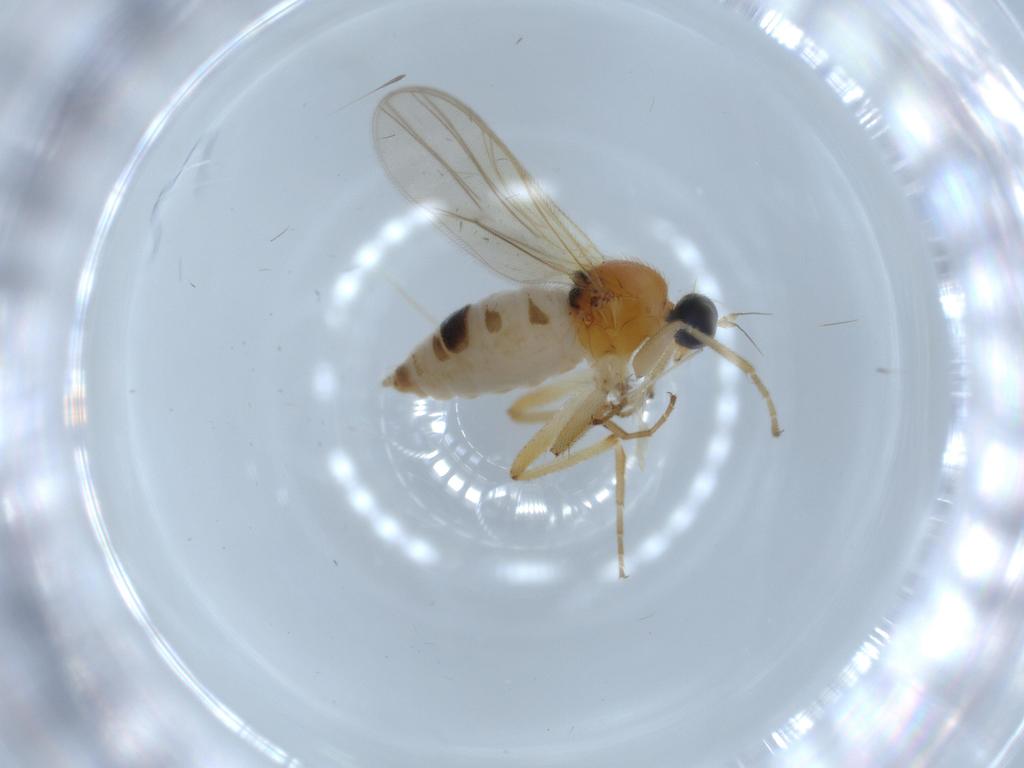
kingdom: Animalia
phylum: Arthropoda
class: Insecta
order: Diptera
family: Hybotidae
